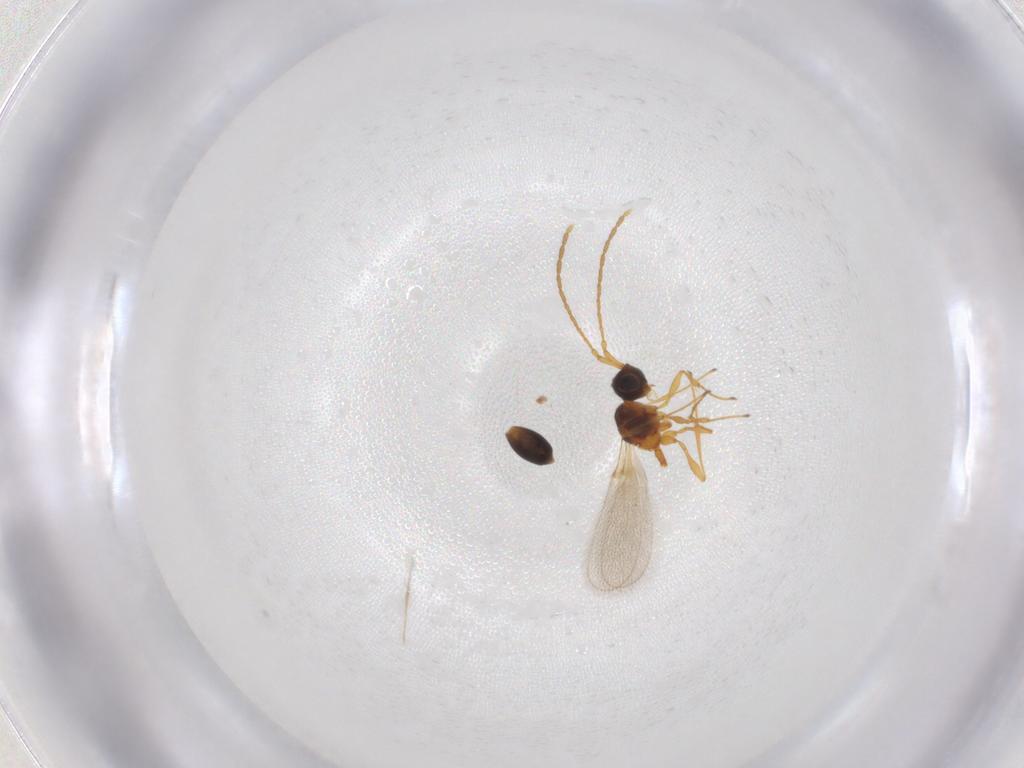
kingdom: Animalia
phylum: Arthropoda
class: Insecta
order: Hymenoptera
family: Diapriidae
